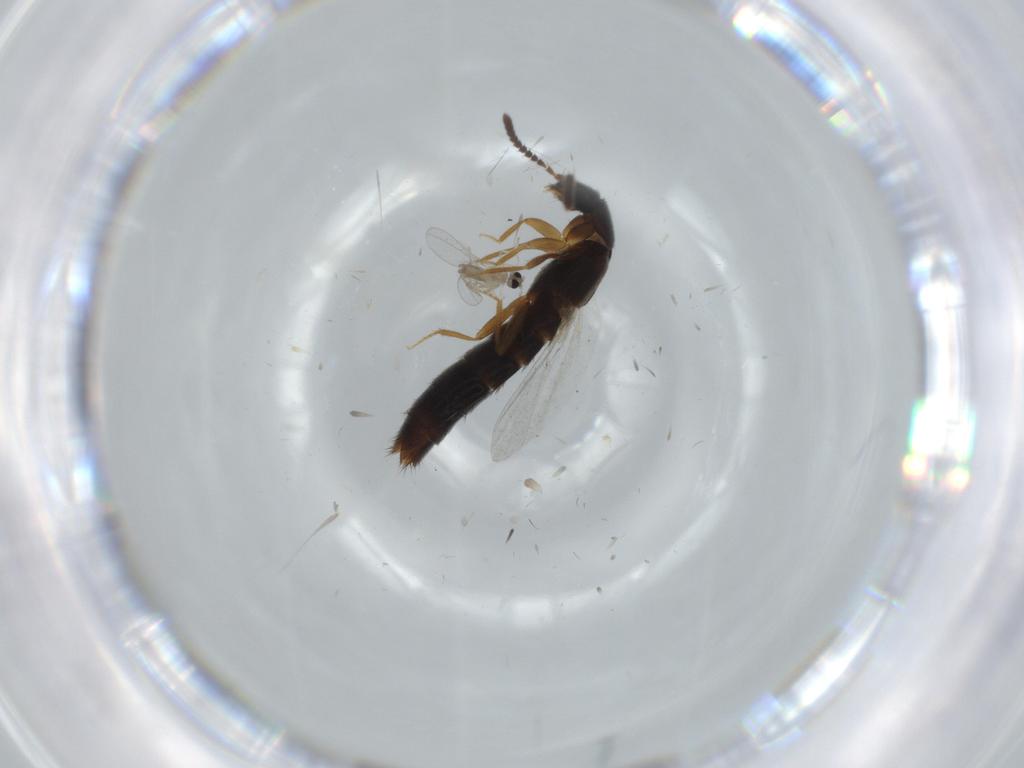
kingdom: Animalia
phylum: Arthropoda
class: Insecta
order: Diptera
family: Cecidomyiidae
